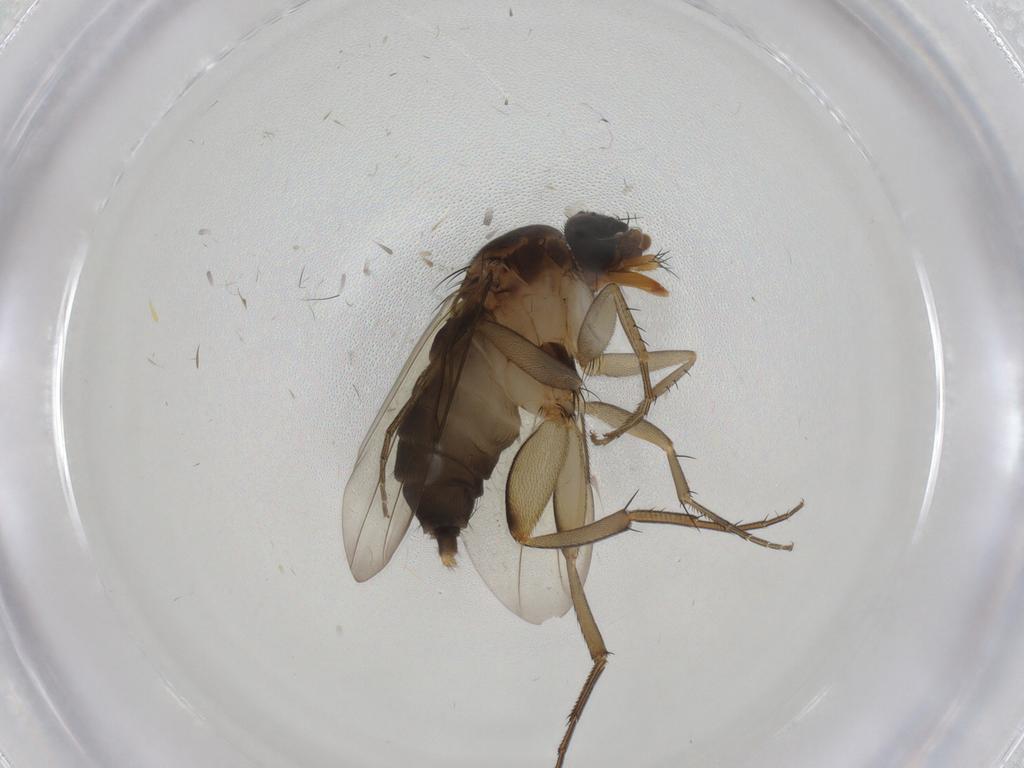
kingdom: Animalia
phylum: Arthropoda
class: Insecta
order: Diptera
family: Phoridae
